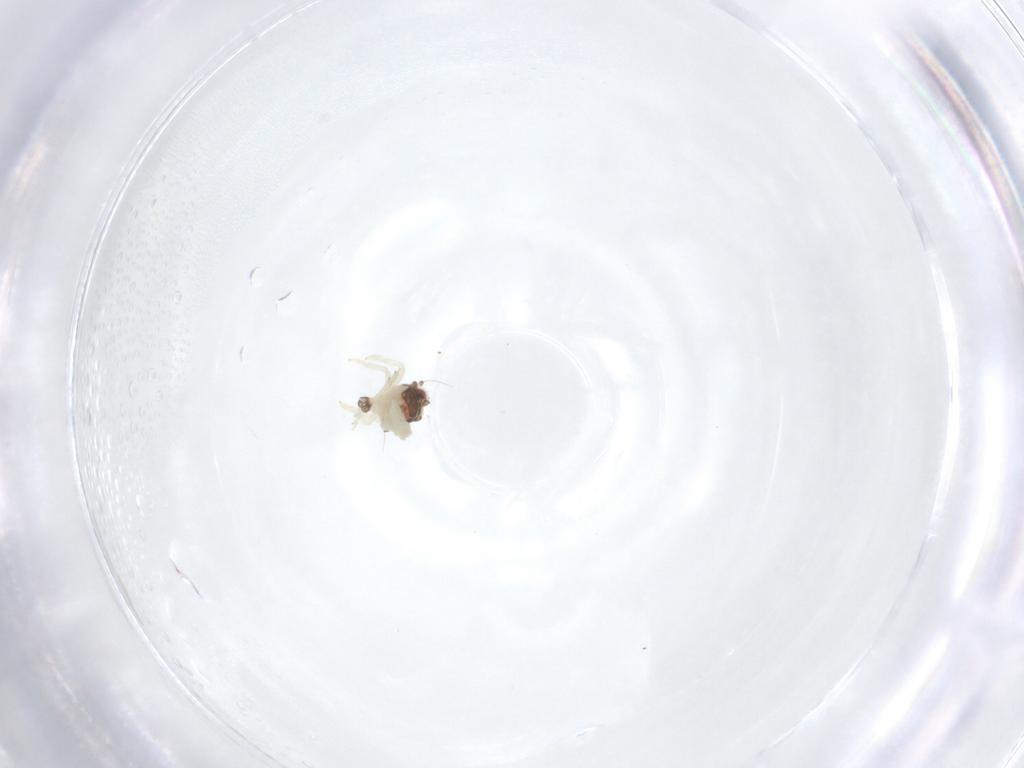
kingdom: Animalia
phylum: Arthropoda
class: Insecta
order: Hemiptera
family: Nogodinidae
